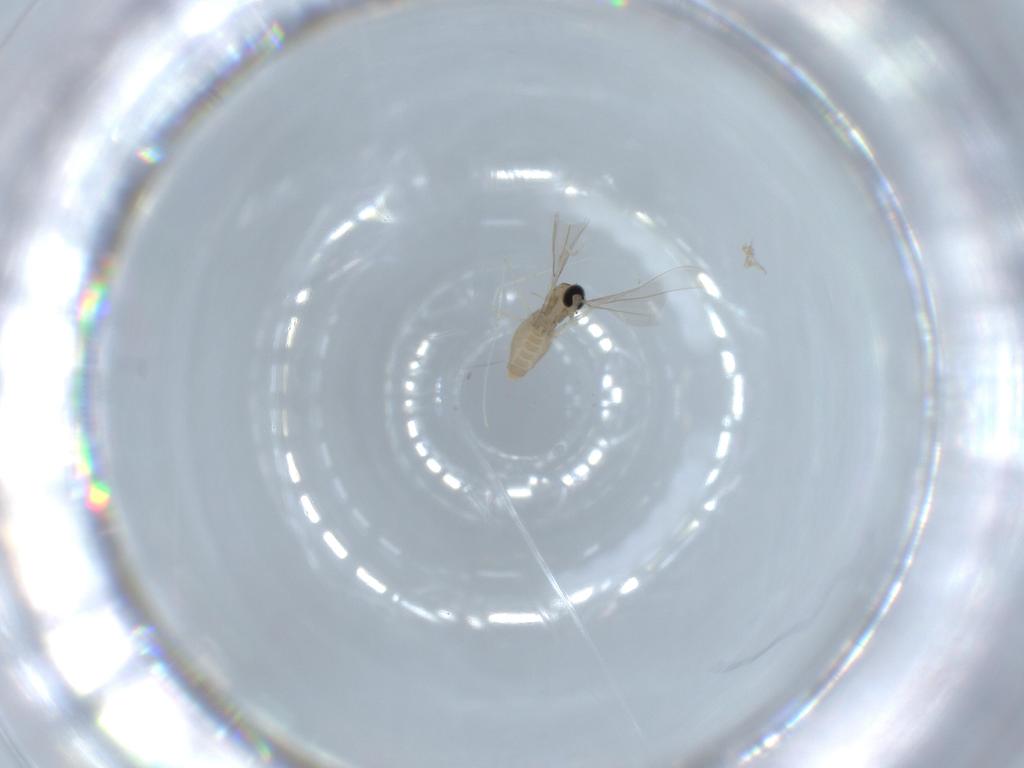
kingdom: Animalia
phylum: Arthropoda
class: Insecta
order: Diptera
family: Cecidomyiidae
